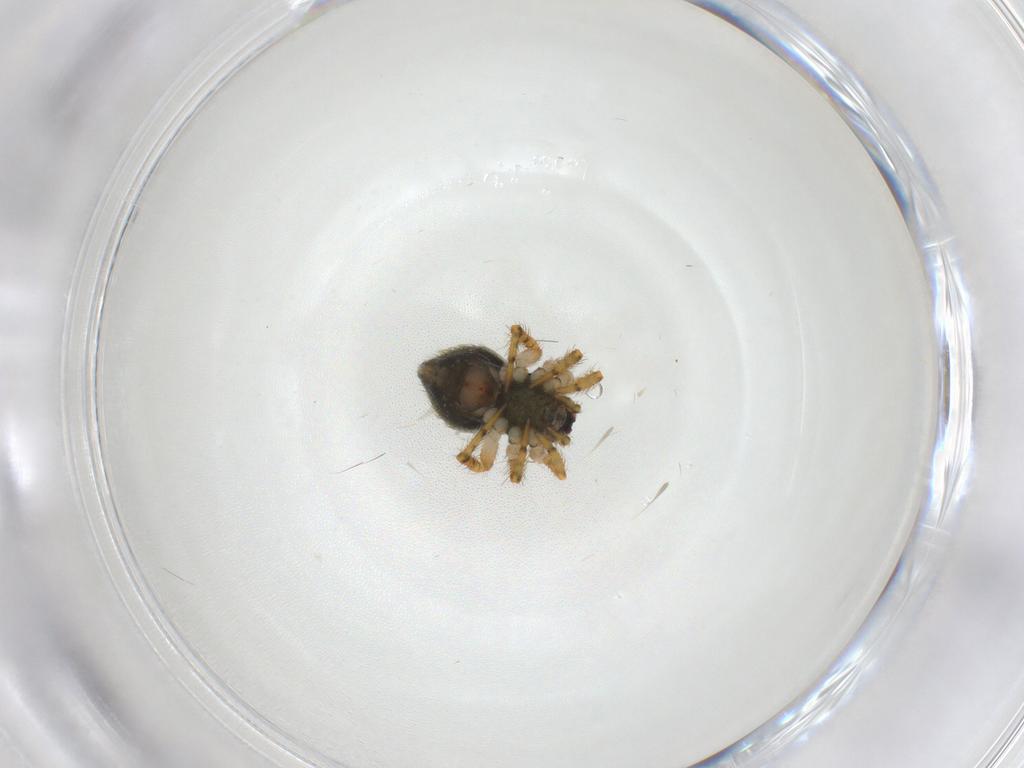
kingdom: Animalia
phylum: Arthropoda
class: Arachnida
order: Araneae
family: Theridiidae
